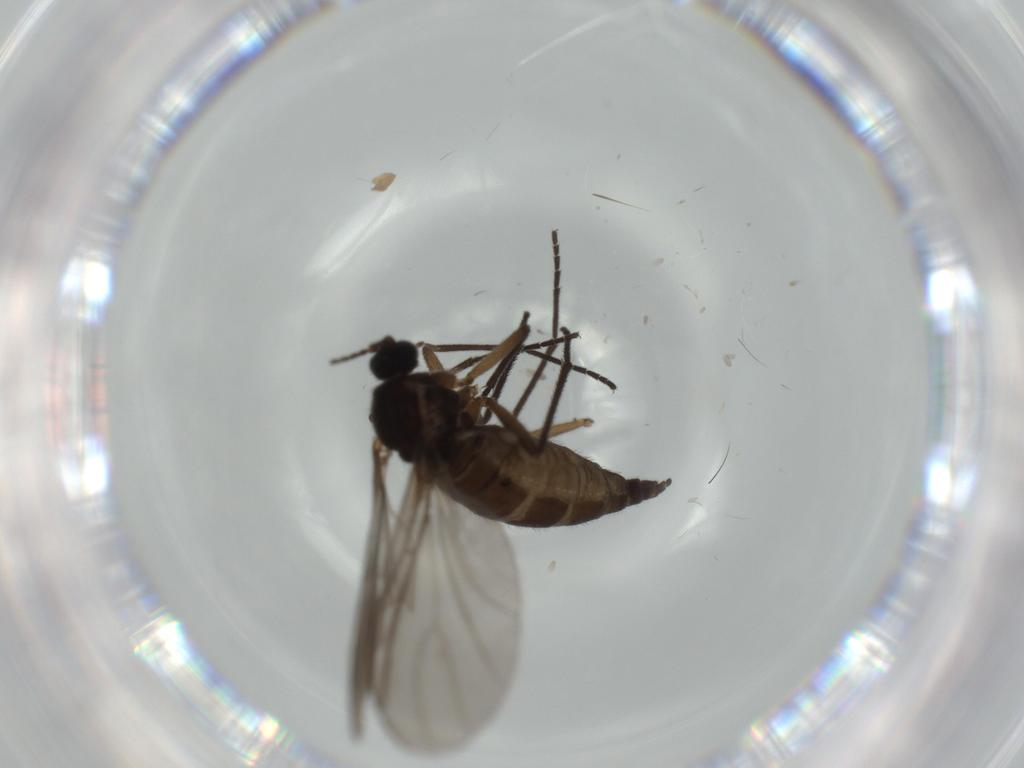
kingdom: Animalia
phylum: Arthropoda
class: Insecta
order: Diptera
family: Sciaridae
